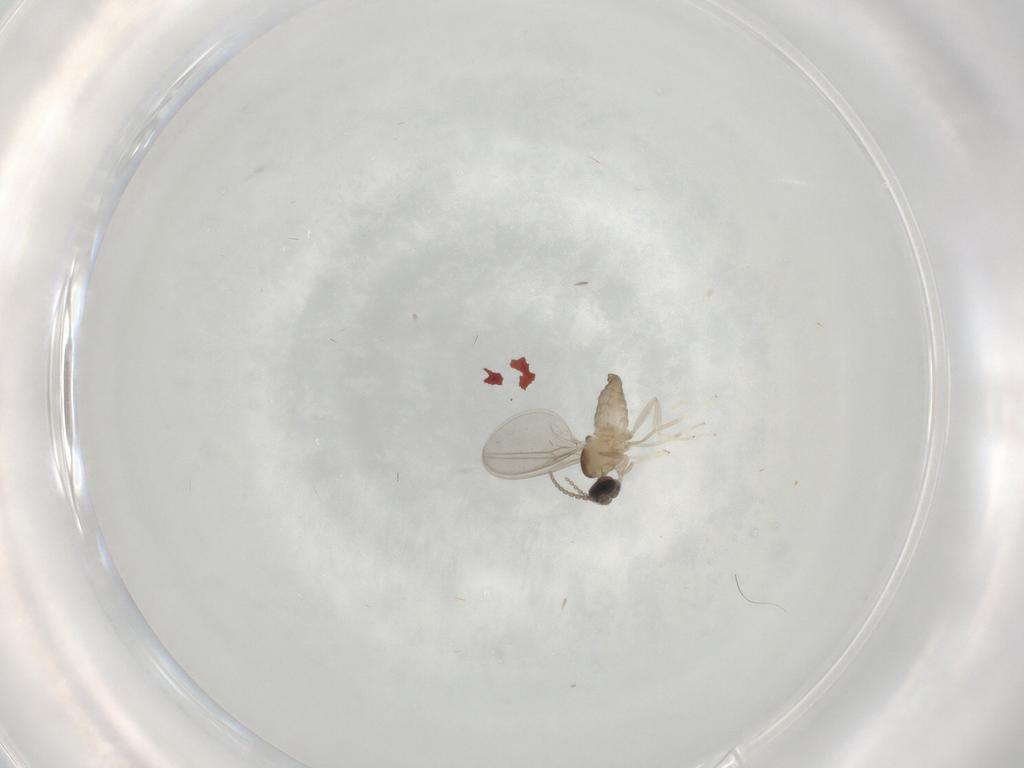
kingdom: Animalia
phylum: Arthropoda
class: Insecta
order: Diptera
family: Cecidomyiidae
